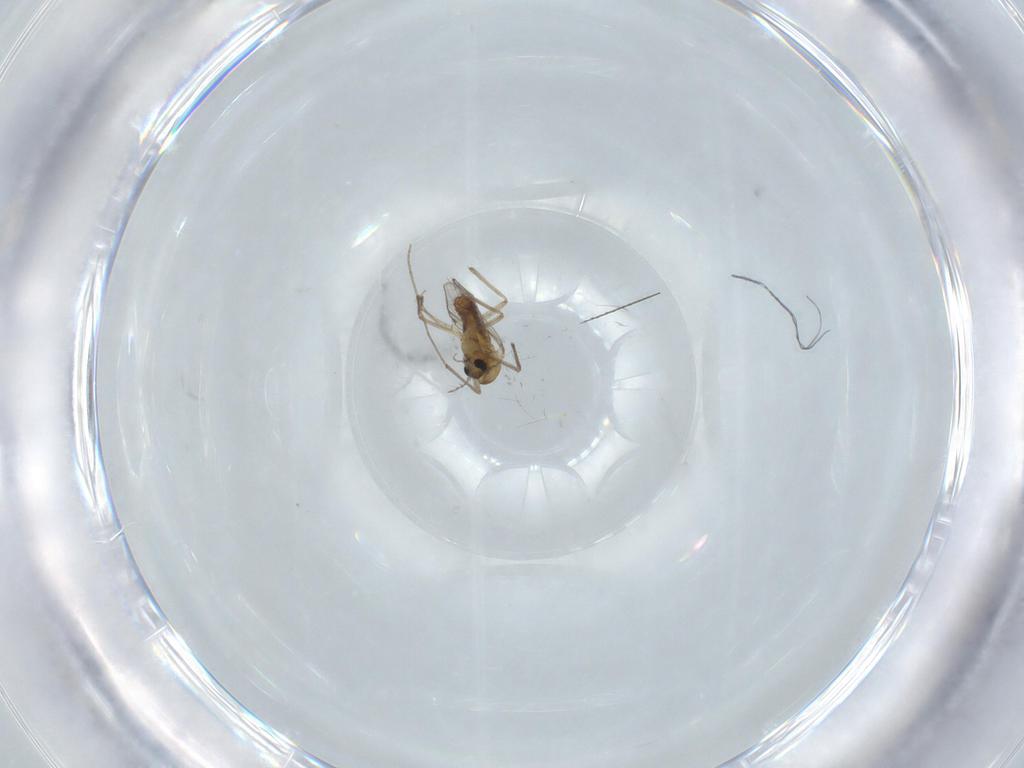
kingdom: Animalia
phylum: Arthropoda
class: Insecta
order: Diptera
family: Chironomidae
